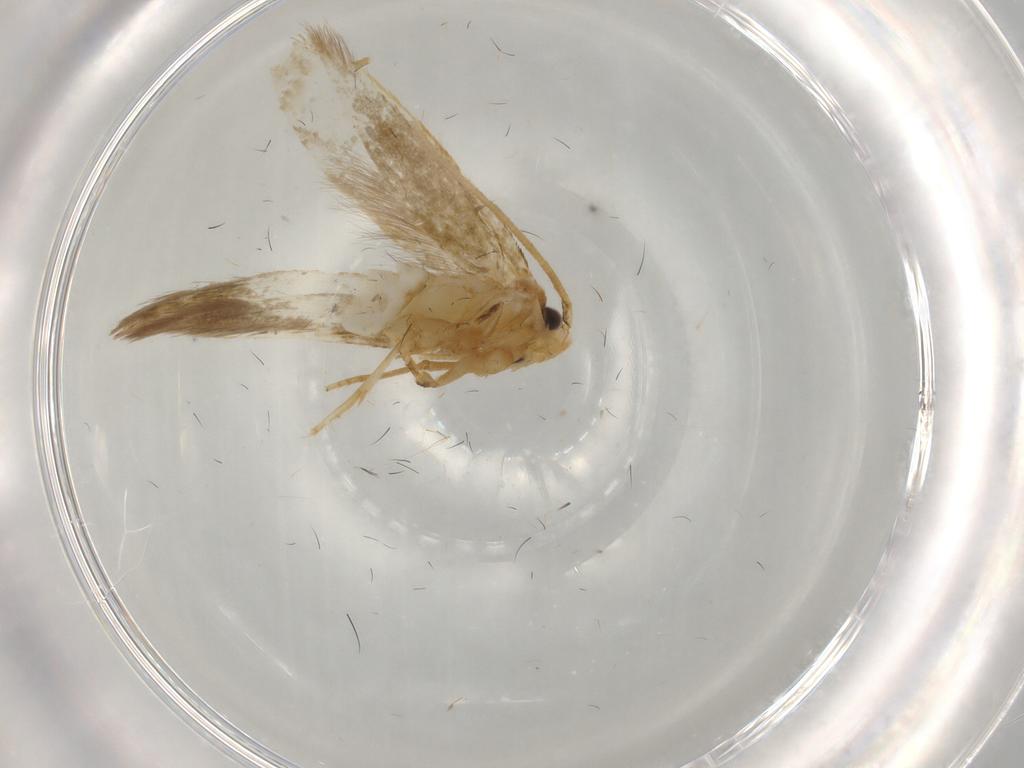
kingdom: Animalia
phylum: Arthropoda
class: Insecta
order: Lepidoptera
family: Tineidae
